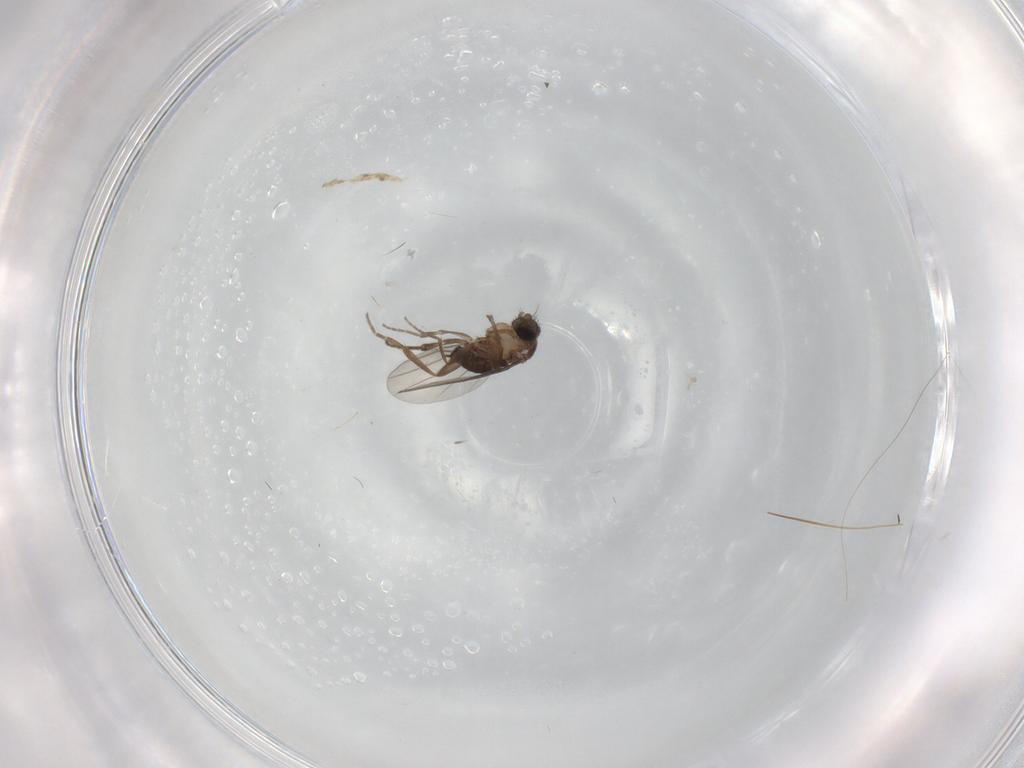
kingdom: Animalia
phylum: Arthropoda
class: Insecta
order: Diptera
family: Phoridae
